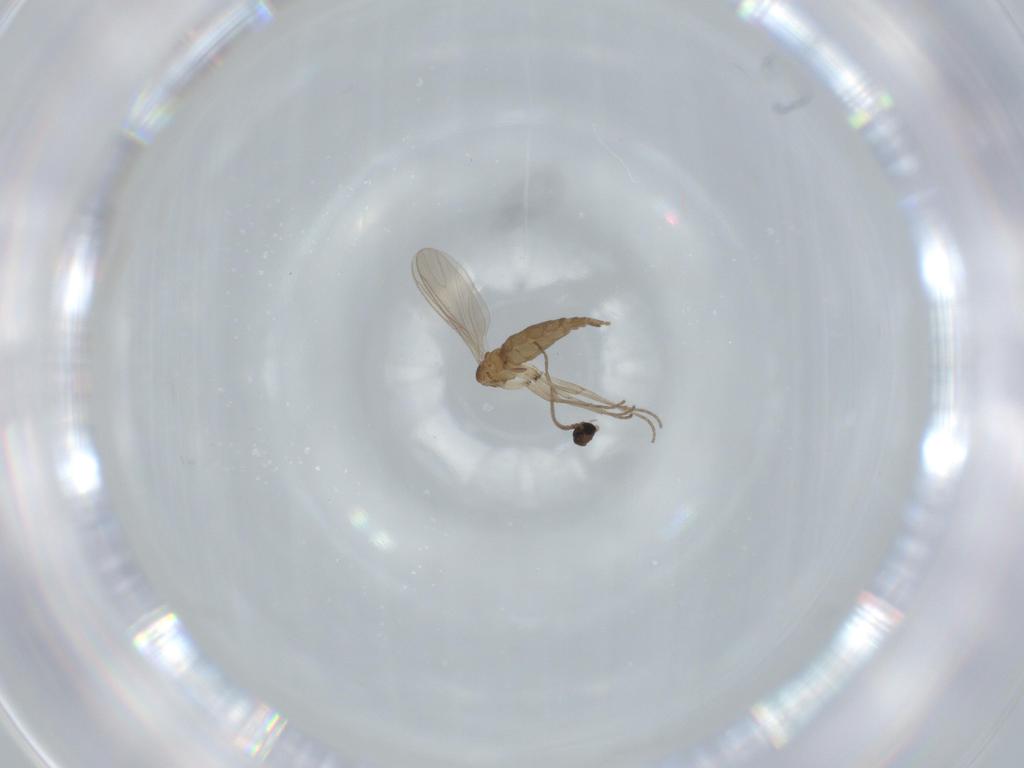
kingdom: Animalia
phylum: Arthropoda
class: Insecta
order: Diptera
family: Sciaridae
